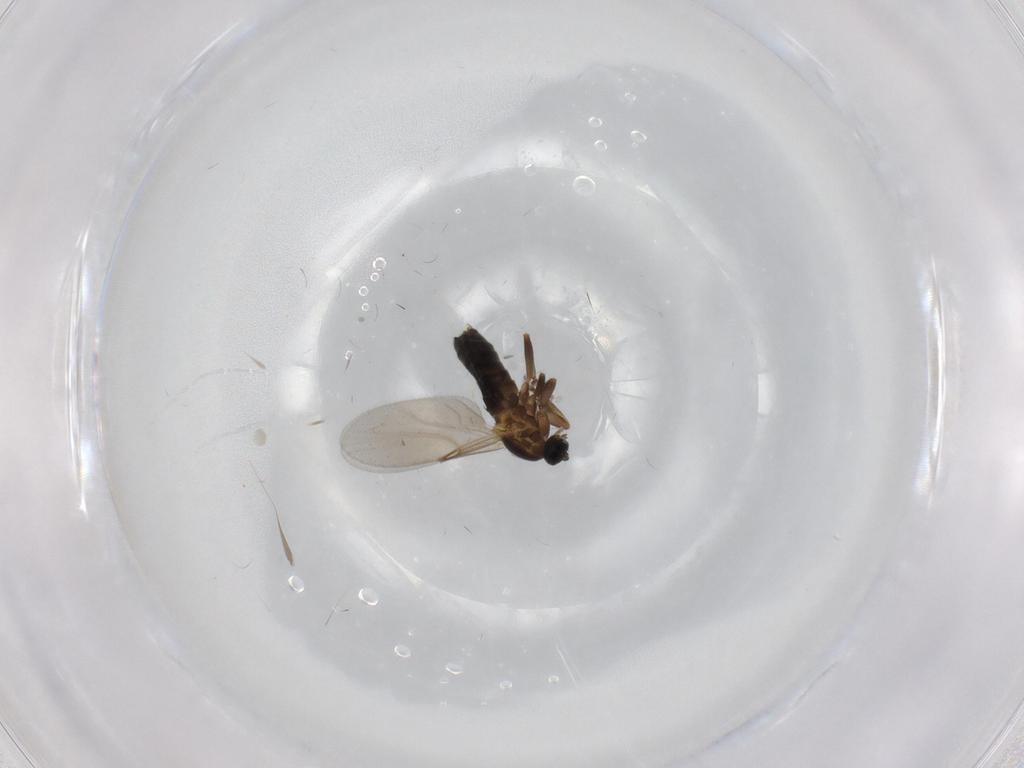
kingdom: Animalia
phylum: Arthropoda
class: Insecta
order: Diptera
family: Scatopsidae
